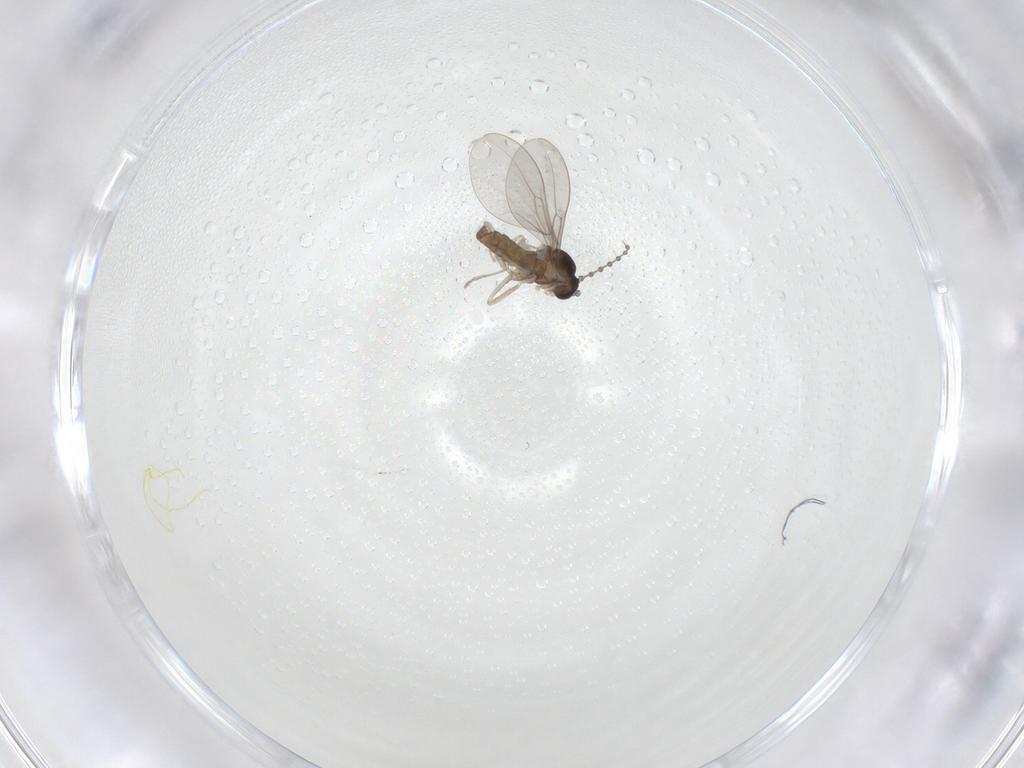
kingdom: Animalia
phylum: Arthropoda
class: Insecta
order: Diptera
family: Cecidomyiidae
